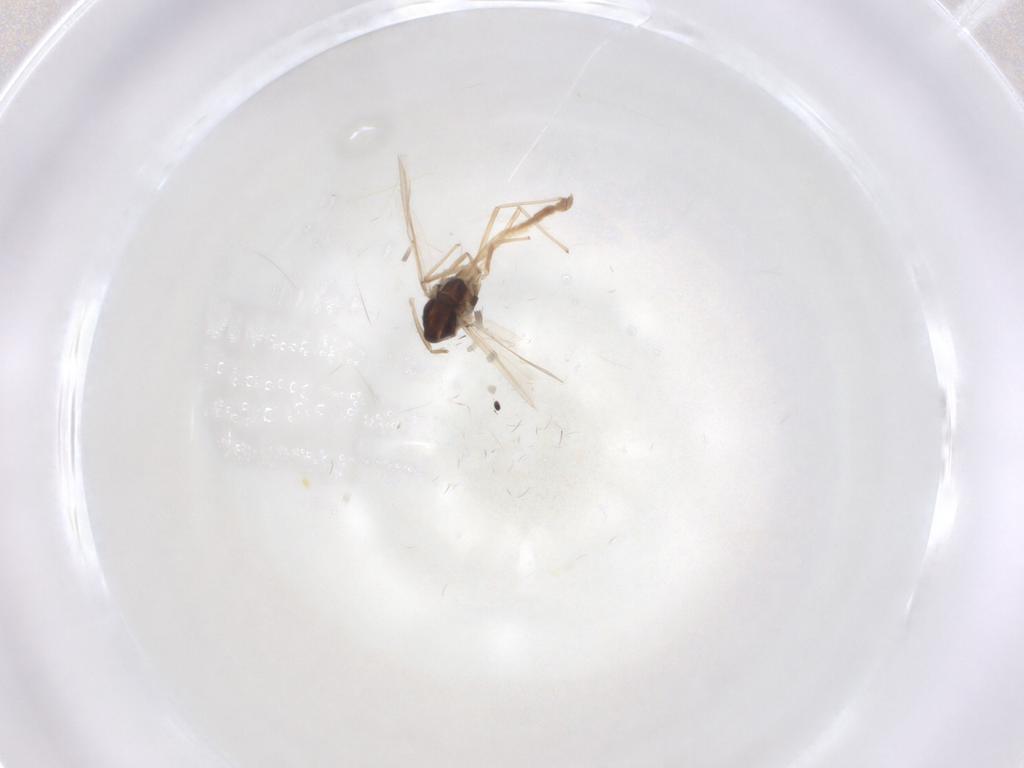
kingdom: Animalia
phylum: Arthropoda
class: Insecta
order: Diptera
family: Chironomidae
